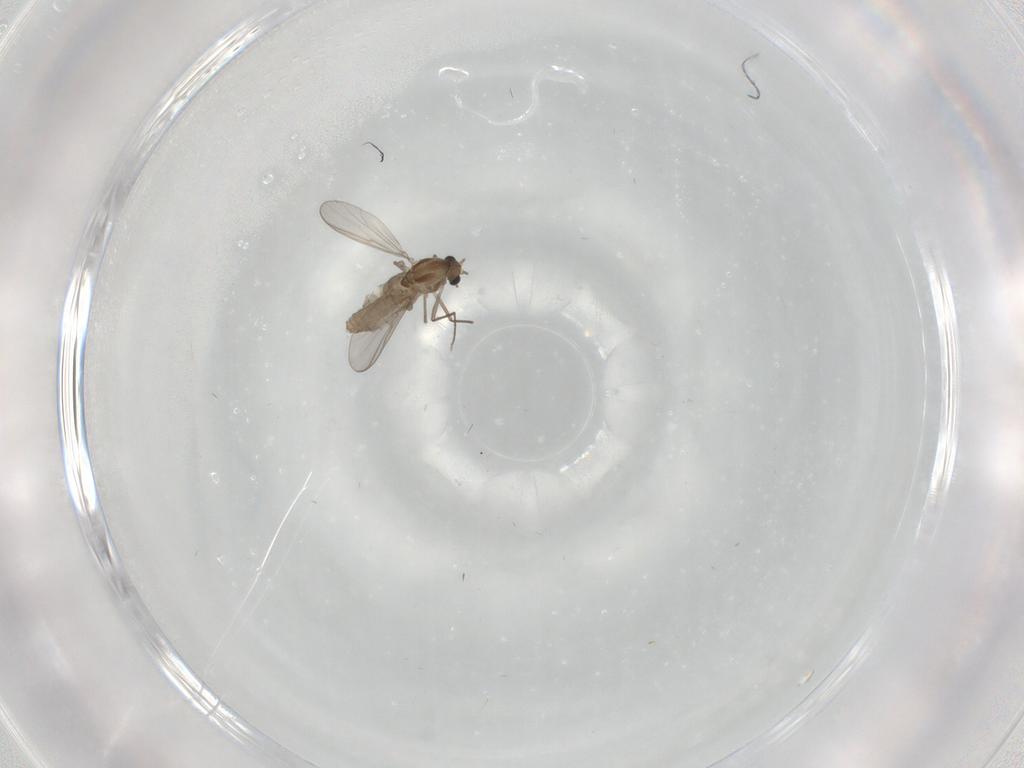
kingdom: Animalia
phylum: Arthropoda
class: Insecta
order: Diptera
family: Chironomidae
